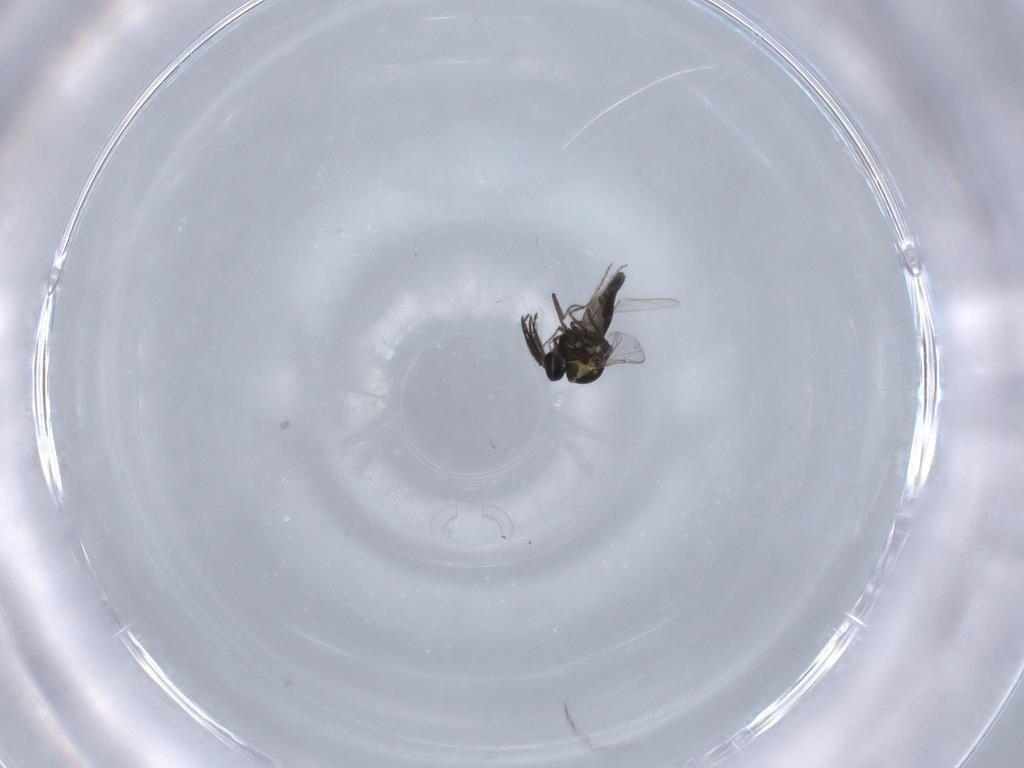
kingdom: Animalia
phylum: Arthropoda
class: Insecta
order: Diptera
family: Ceratopogonidae
